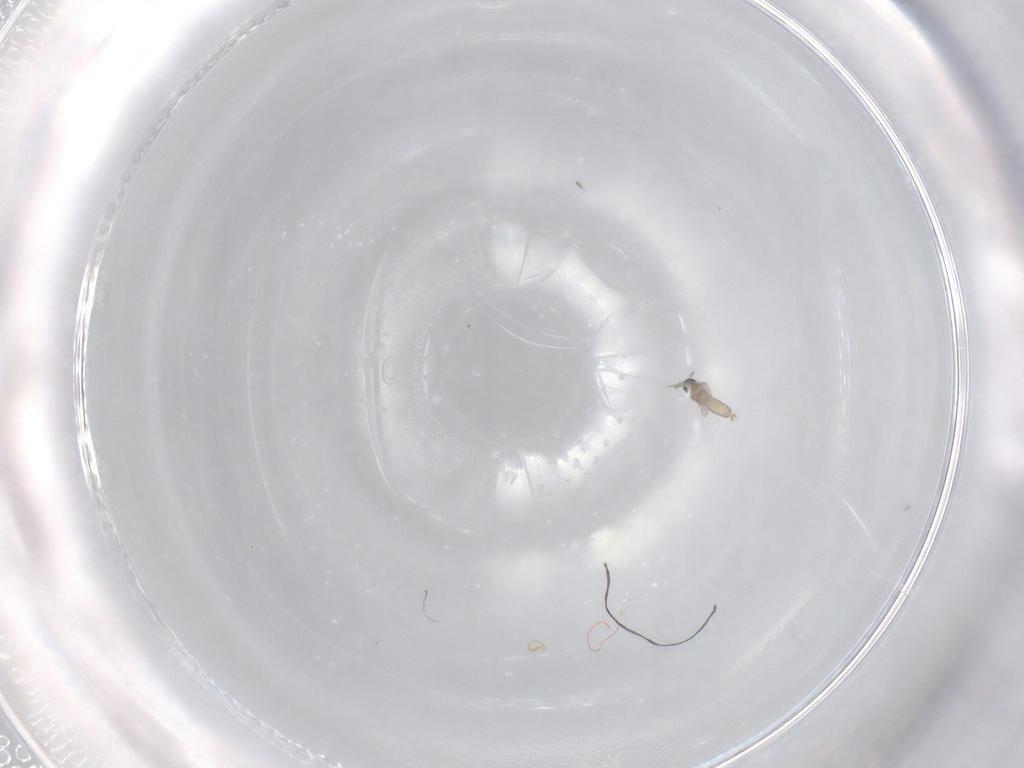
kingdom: Animalia
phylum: Arthropoda
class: Insecta
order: Diptera
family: Cecidomyiidae
